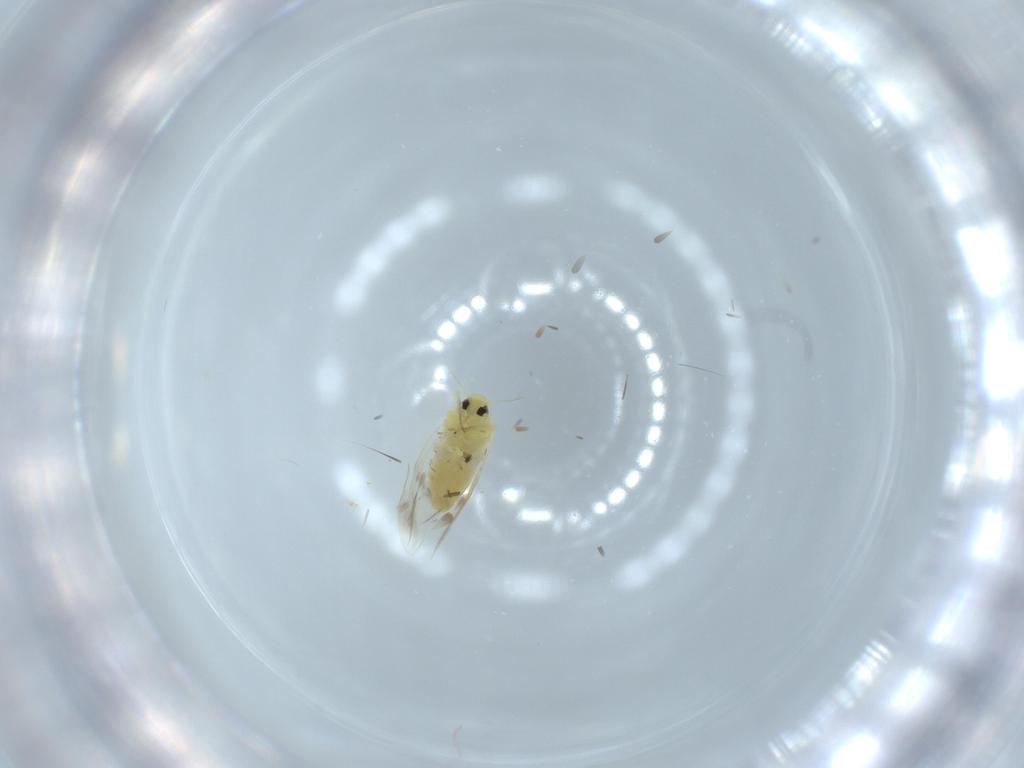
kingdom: Animalia
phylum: Arthropoda
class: Insecta
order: Hemiptera
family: Aleyrodidae
